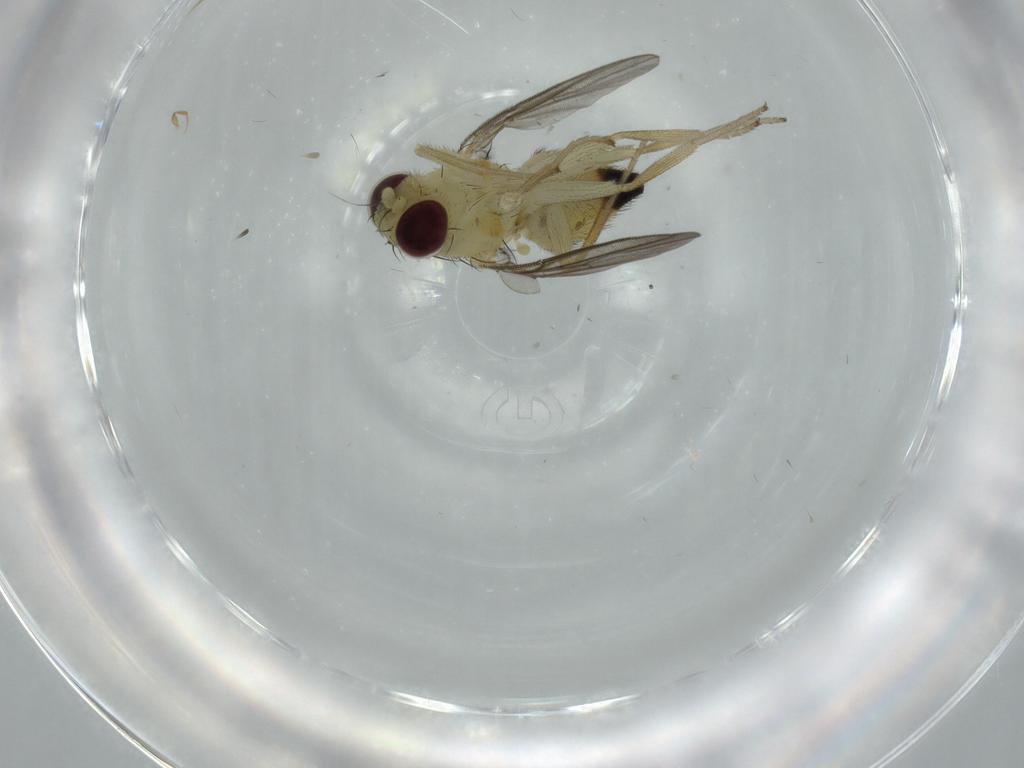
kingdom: Animalia
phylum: Arthropoda
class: Insecta
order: Diptera
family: Agromyzidae
